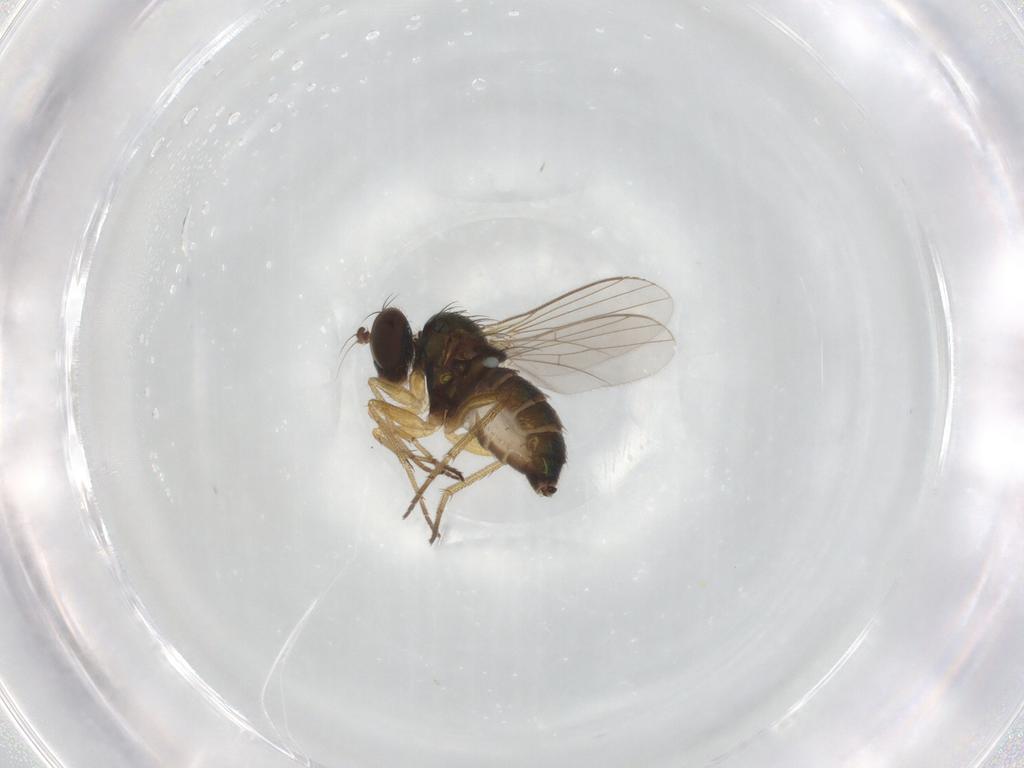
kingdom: Animalia
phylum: Arthropoda
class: Insecta
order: Diptera
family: Dolichopodidae
